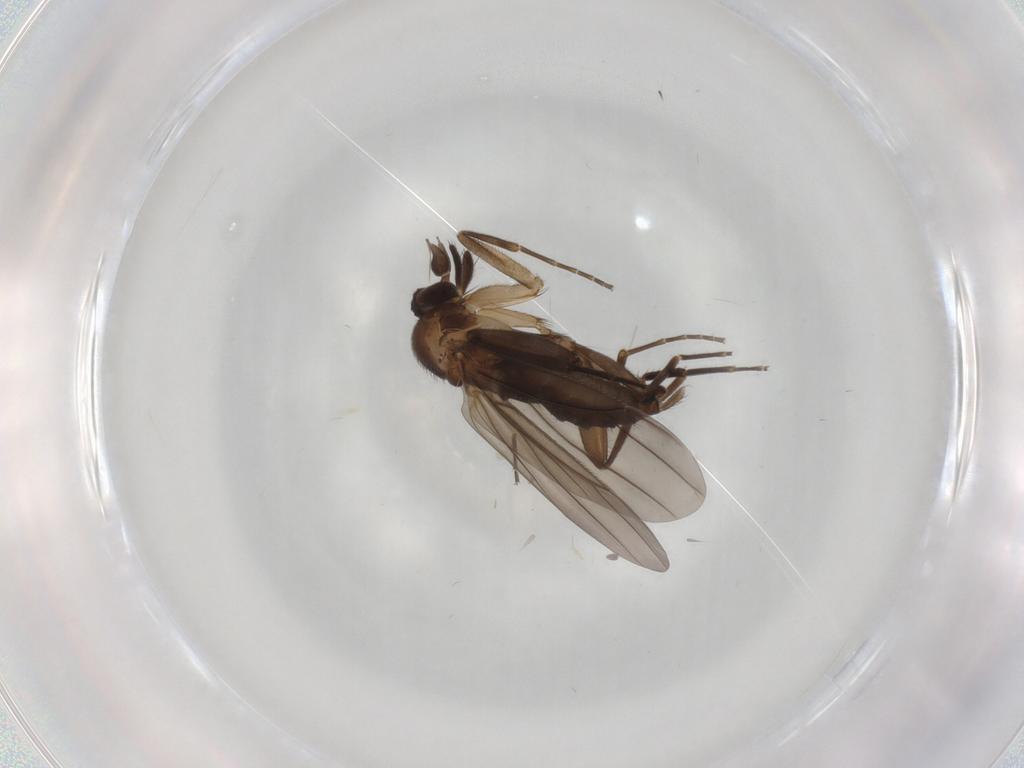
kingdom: Animalia
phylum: Arthropoda
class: Insecta
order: Diptera
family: Phoridae
